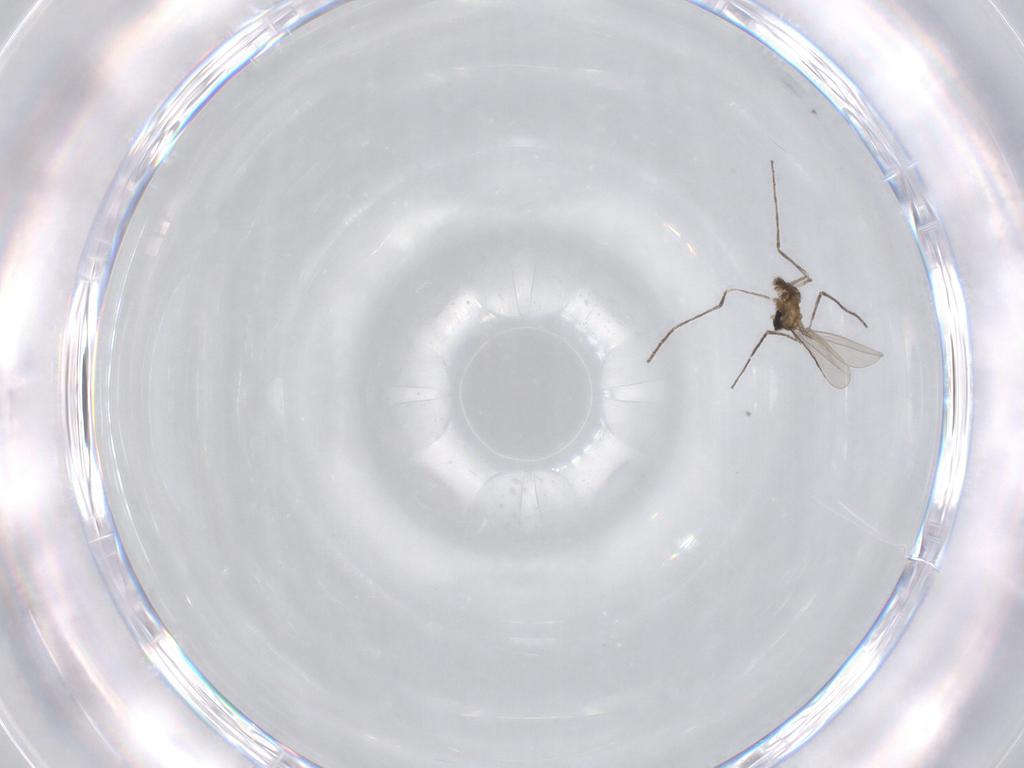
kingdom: Animalia
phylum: Arthropoda
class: Insecta
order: Diptera
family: Cecidomyiidae
